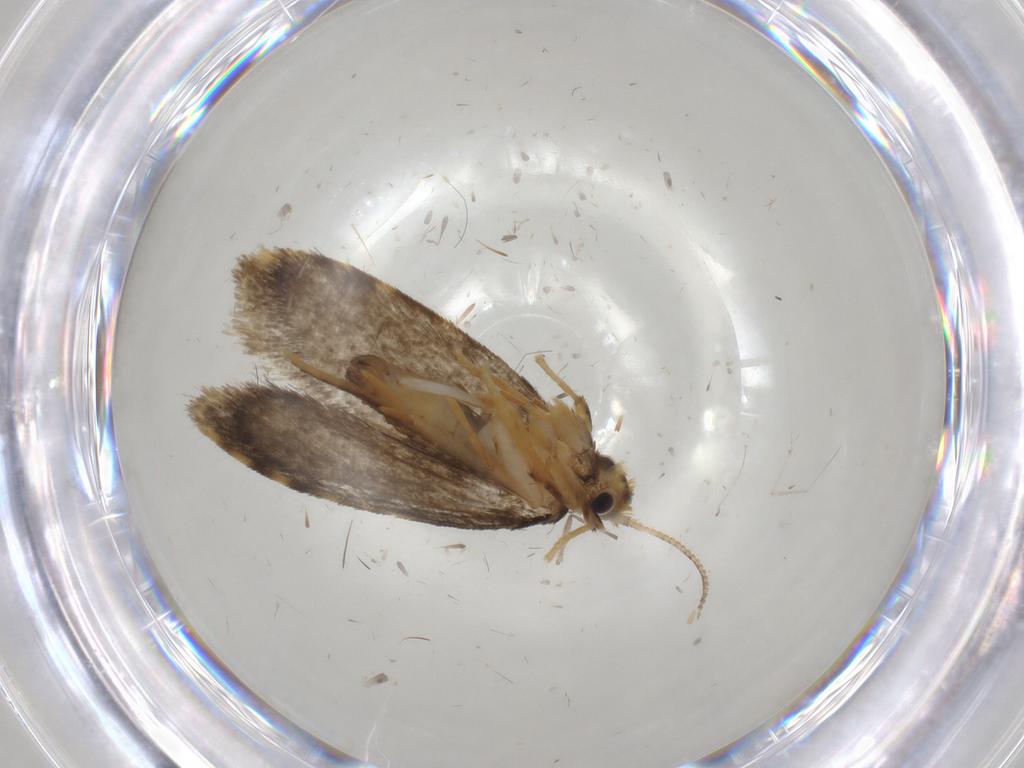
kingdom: Animalia
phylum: Arthropoda
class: Insecta
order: Lepidoptera
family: Psychidae
